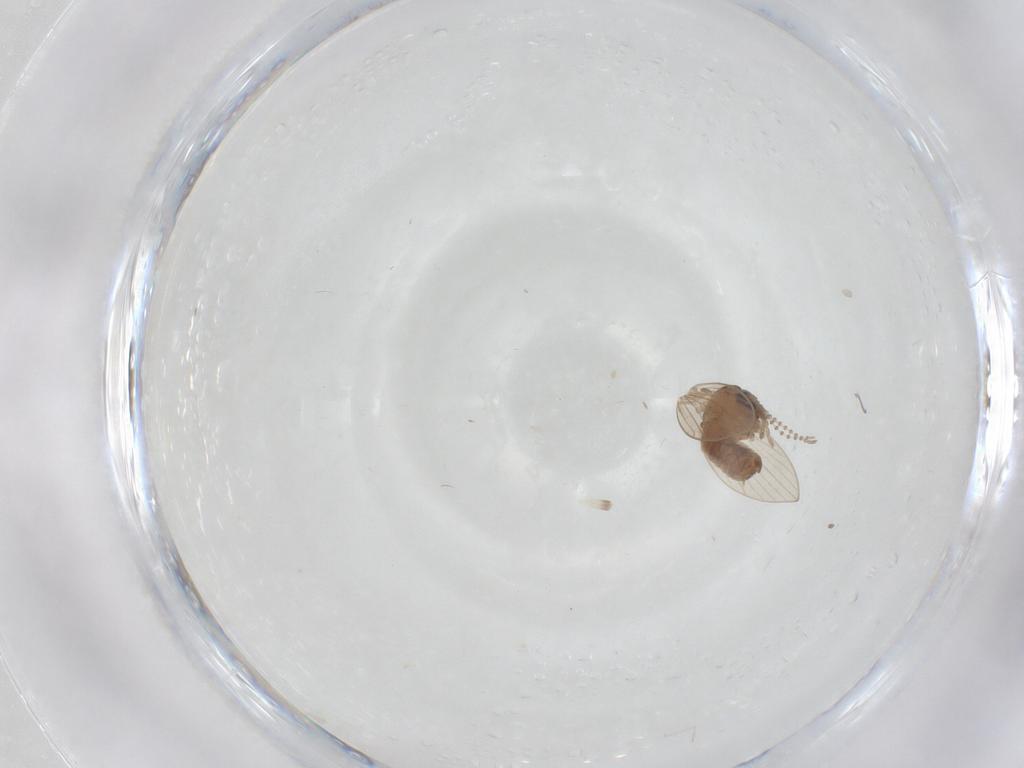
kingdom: Animalia
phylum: Arthropoda
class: Insecta
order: Diptera
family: Psychodidae
